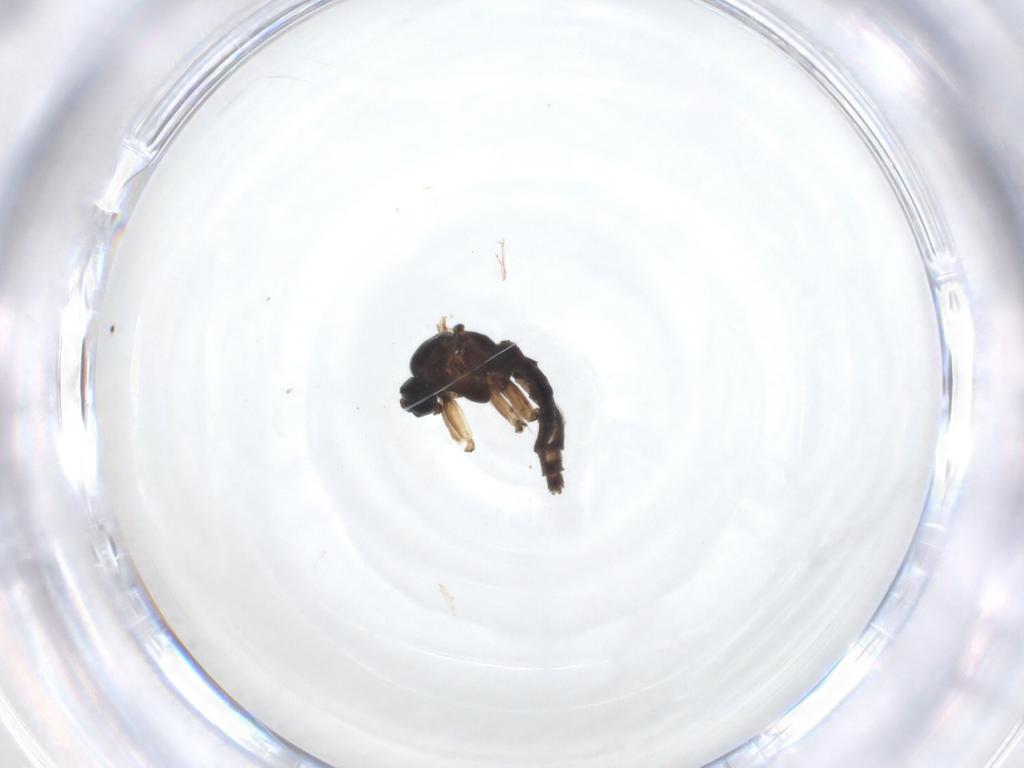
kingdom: Animalia
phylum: Arthropoda
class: Insecta
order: Diptera
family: Sciaridae
